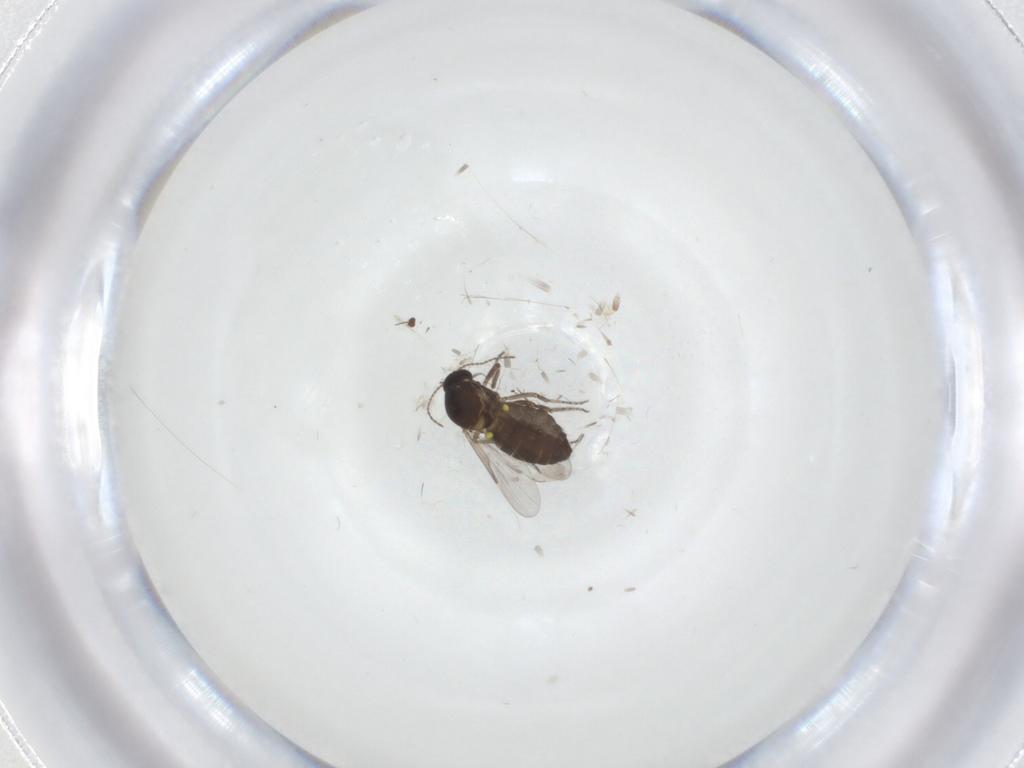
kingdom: Animalia
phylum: Arthropoda
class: Insecta
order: Diptera
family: Ceratopogonidae
